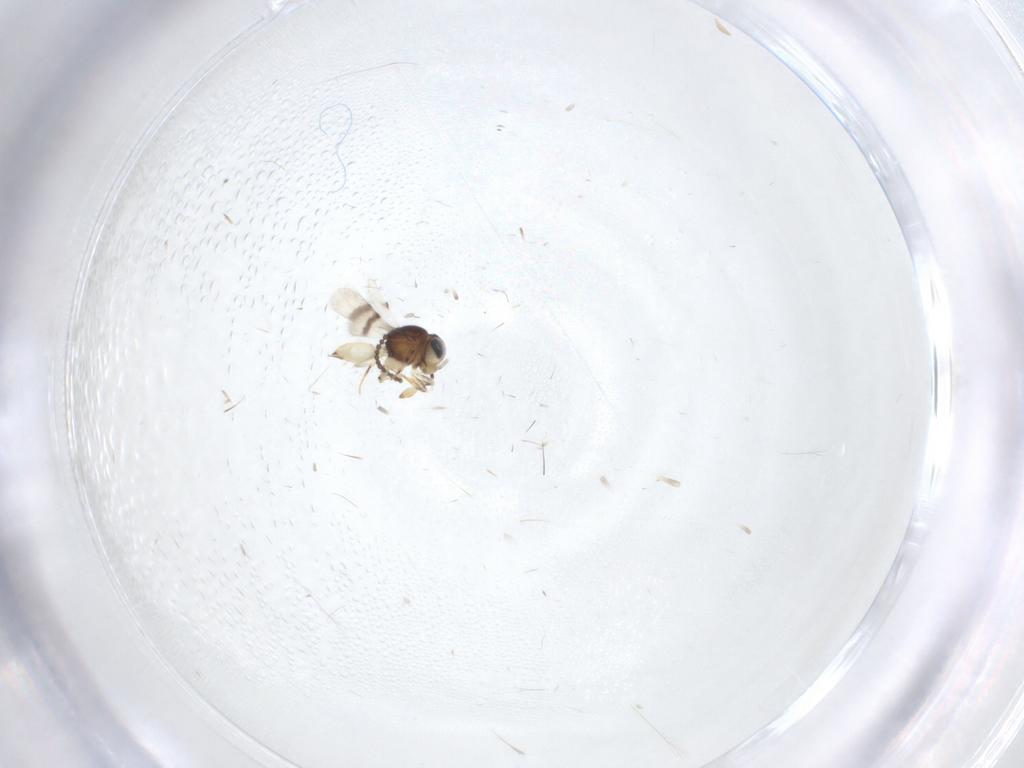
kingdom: Animalia
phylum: Arthropoda
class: Insecta
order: Hymenoptera
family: Scelionidae
